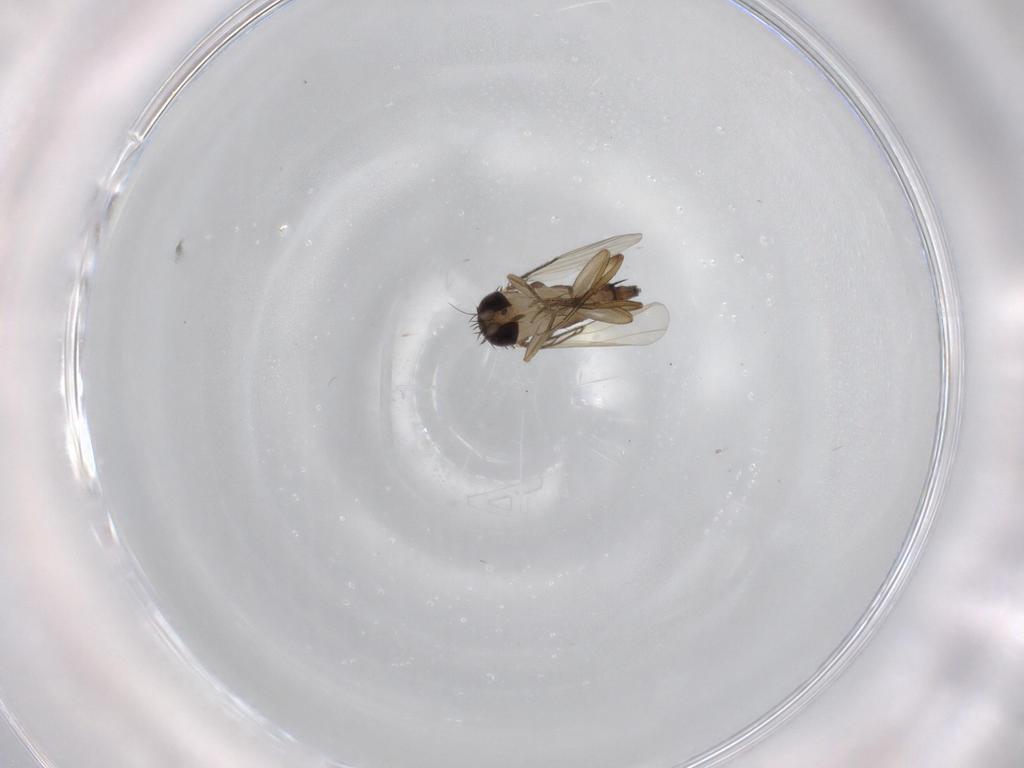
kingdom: Animalia
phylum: Arthropoda
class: Insecta
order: Diptera
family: Phoridae
